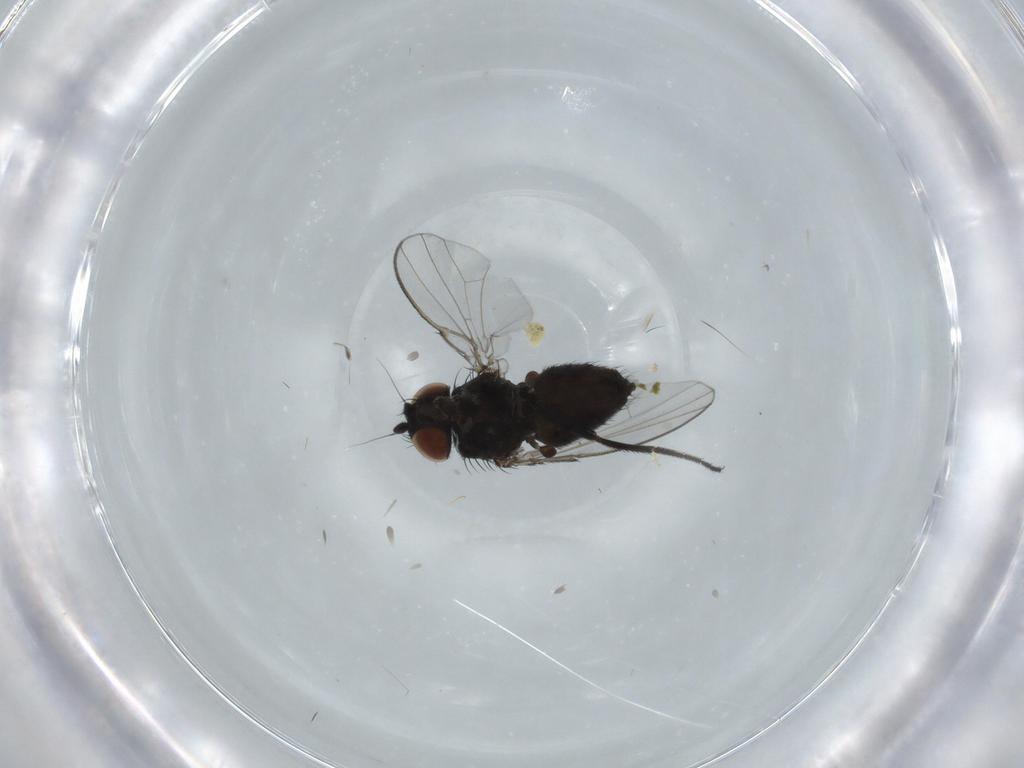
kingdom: Animalia
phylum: Arthropoda
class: Insecta
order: Diptera
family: Milichiidae
